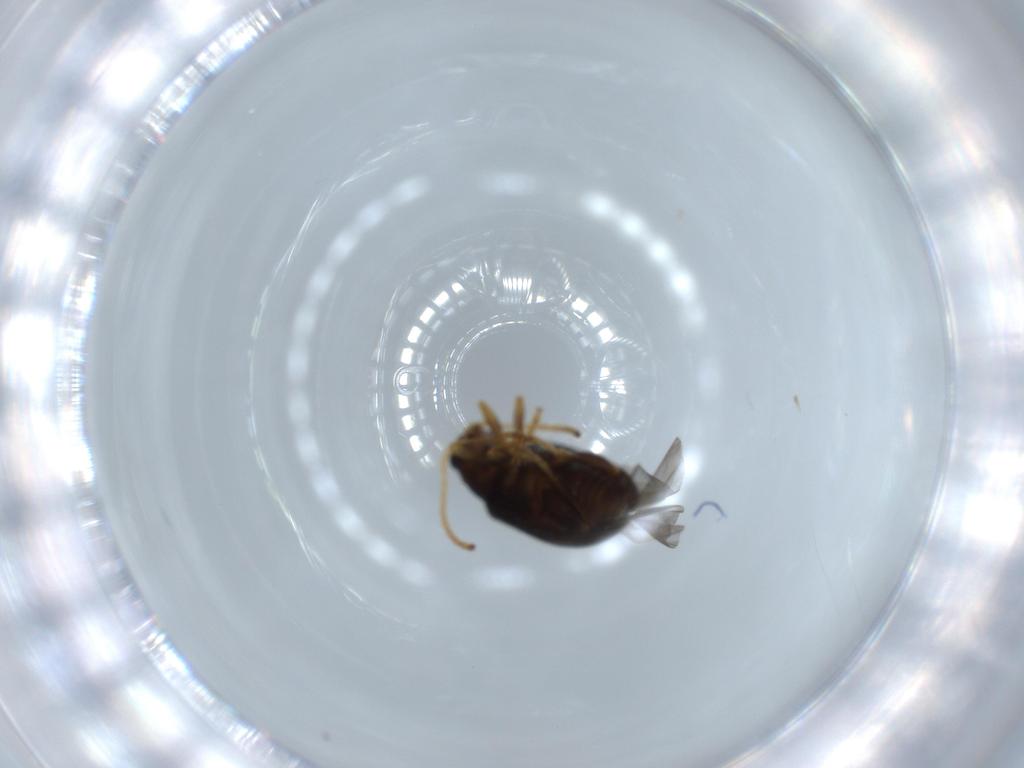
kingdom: Animalia
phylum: Arthropoda
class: Insecta
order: Coleoptera
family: Chrysomelidae
